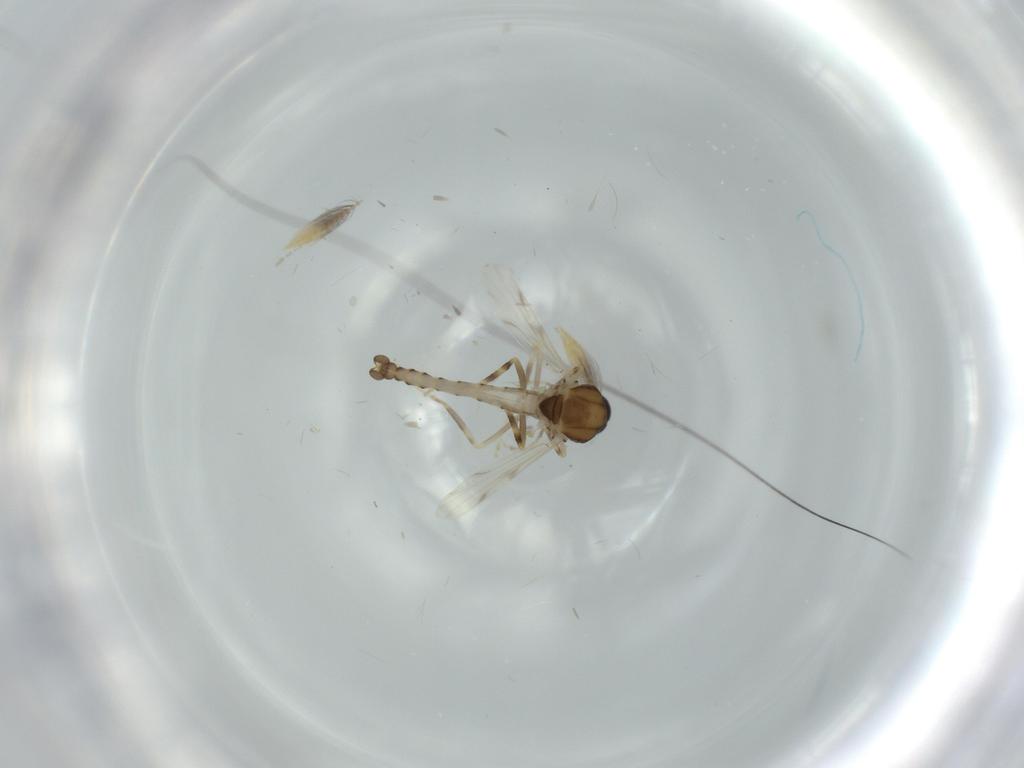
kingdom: Animalia
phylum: Arthropoda
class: Insecta
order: Diptera
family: Ceratopogonidae
